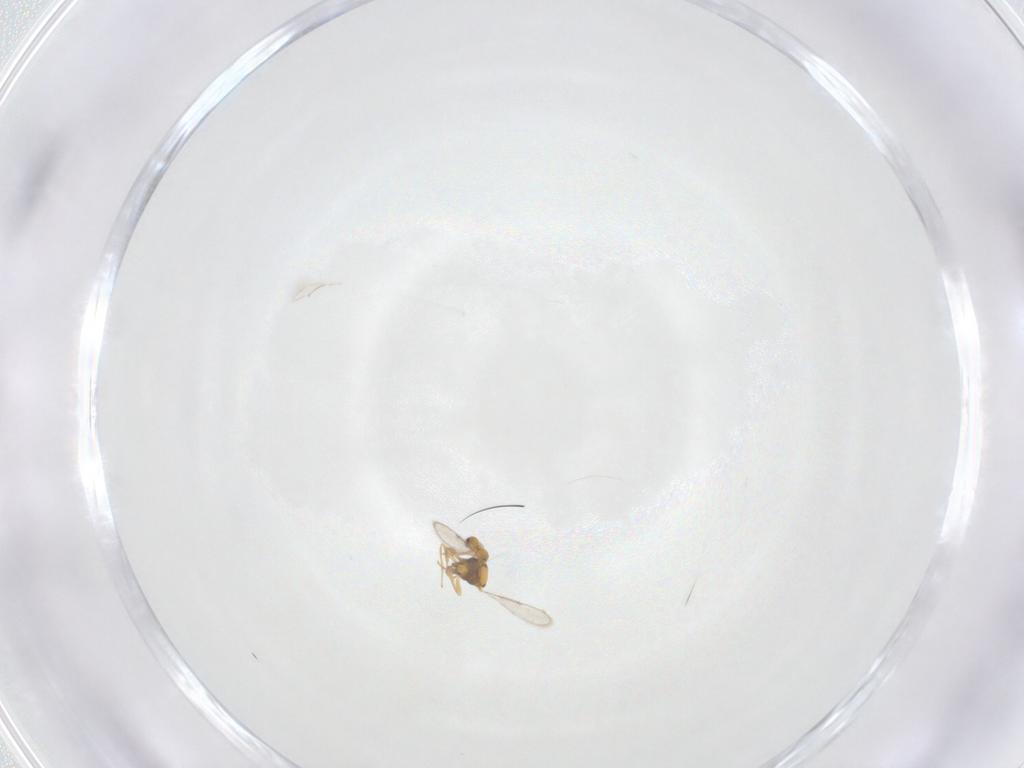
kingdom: Animalia
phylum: Arthropoda
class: Insecta
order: Hymenoptera
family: Aphelinidae
